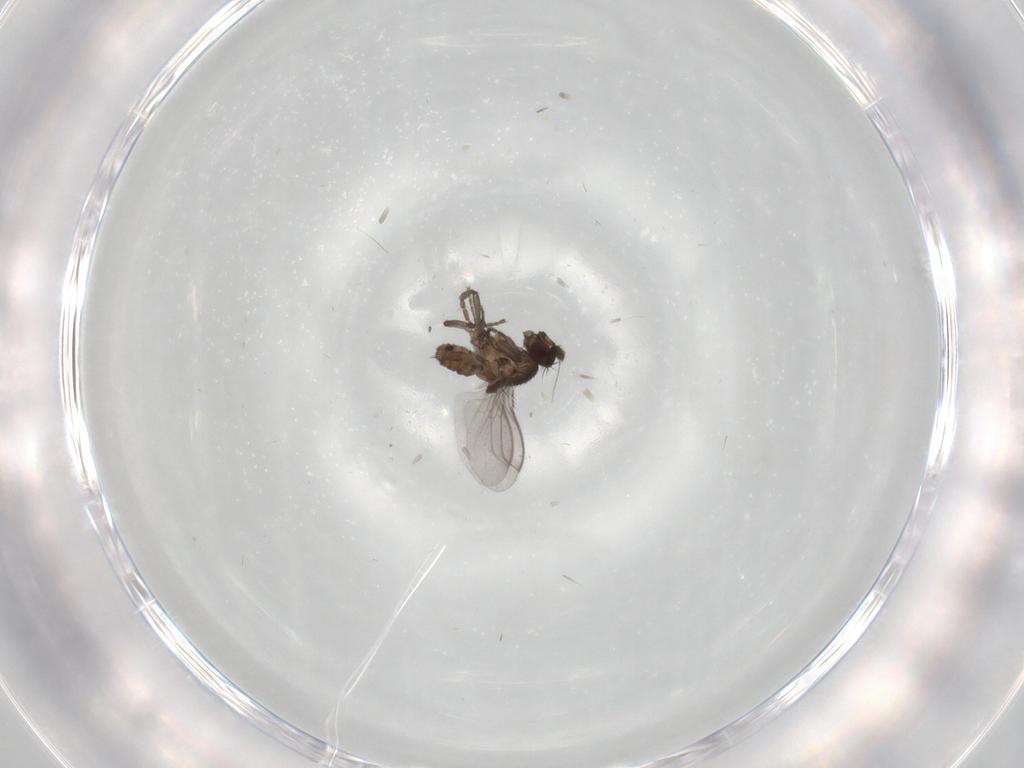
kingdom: Animalia
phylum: Arthropoda
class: Insecta
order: Diptera
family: Sphaeroceridae
